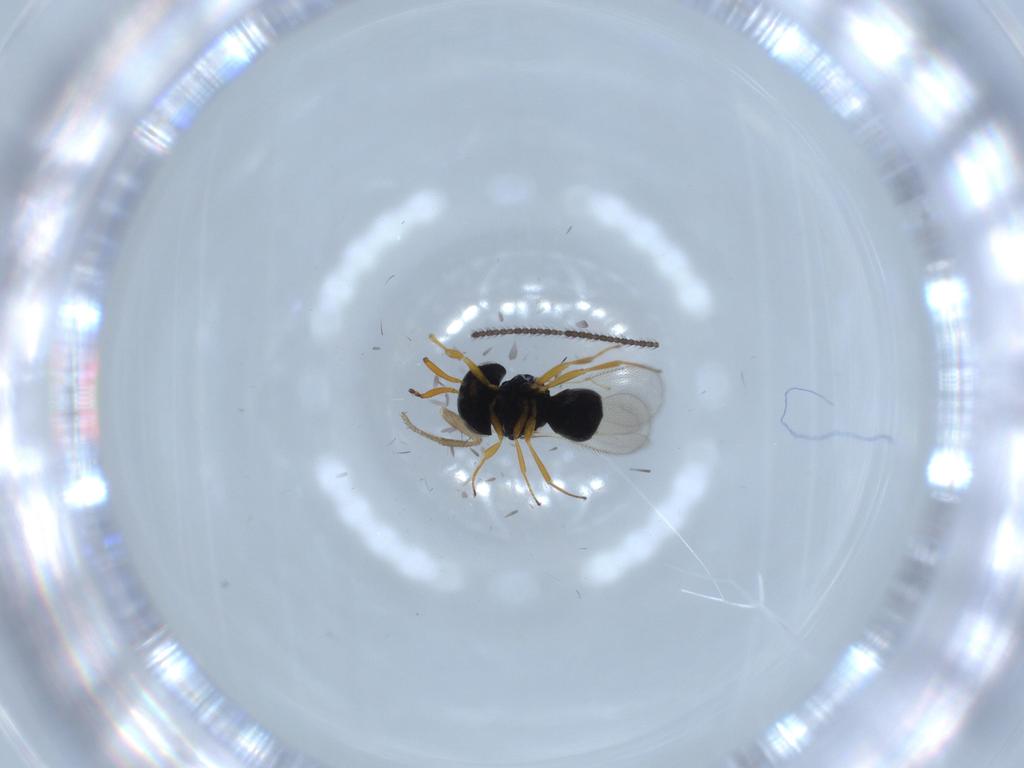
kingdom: Animalia
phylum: Arthropoda
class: Insecta
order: Hymenoptera
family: Scelionidae
